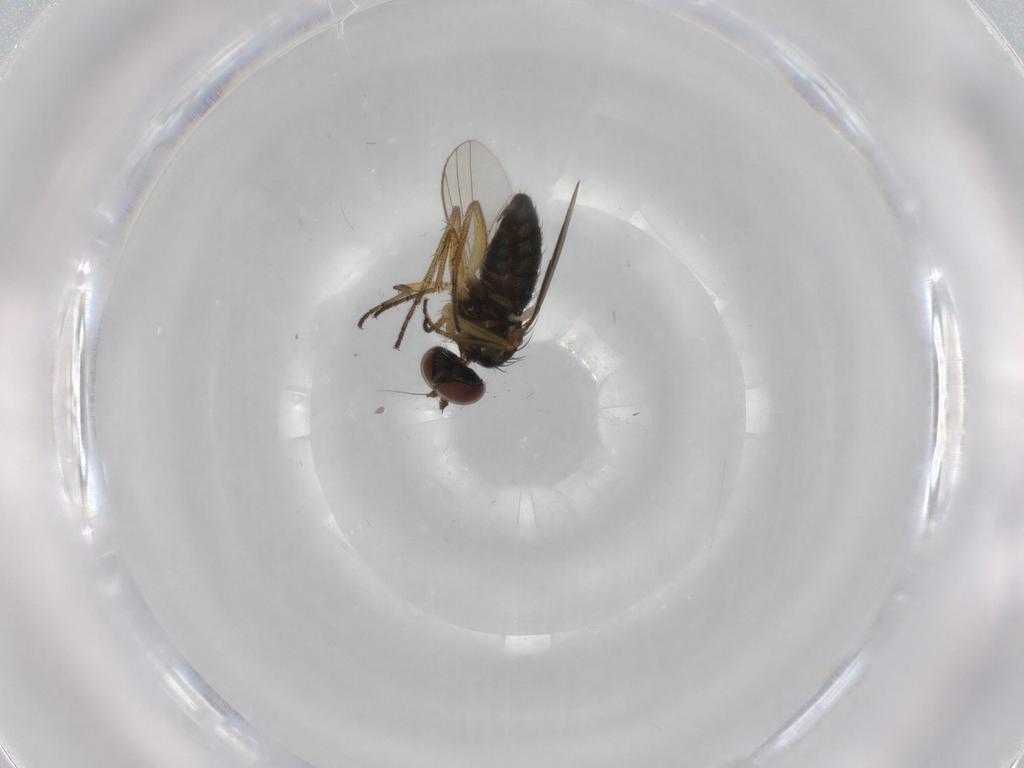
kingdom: Animalia
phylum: Arthropoda
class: Insecta
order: Diptera
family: Dolichopodidae
